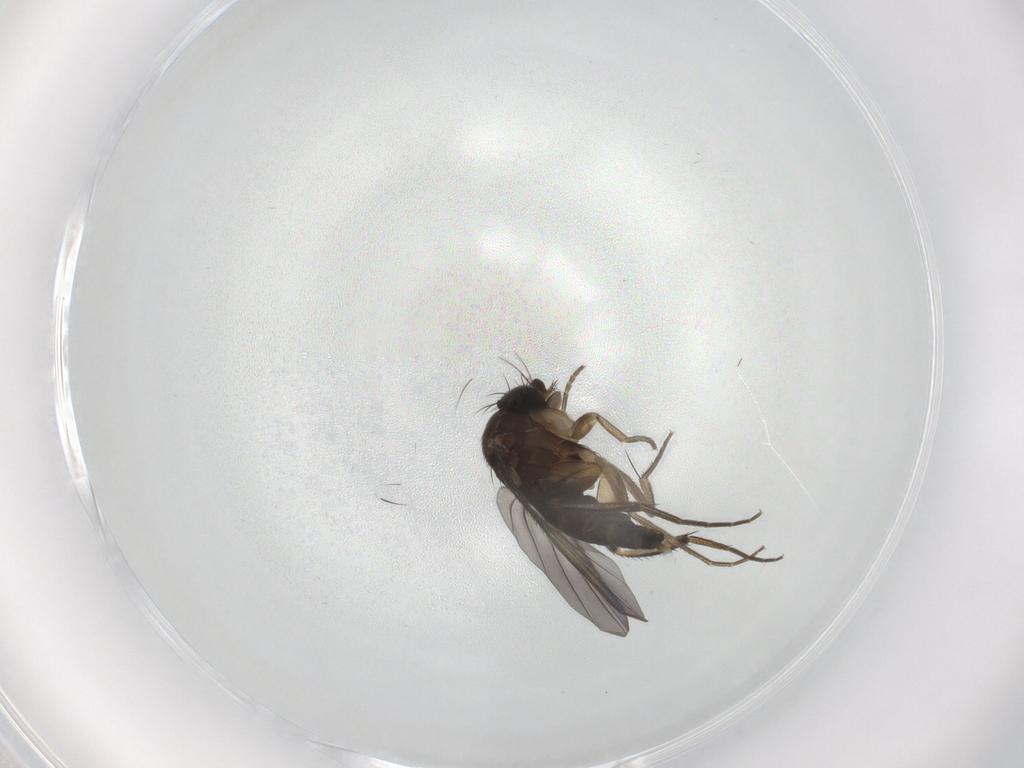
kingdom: Animalia
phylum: Arthropoda
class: Insecta
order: Diptera
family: Phoridae
